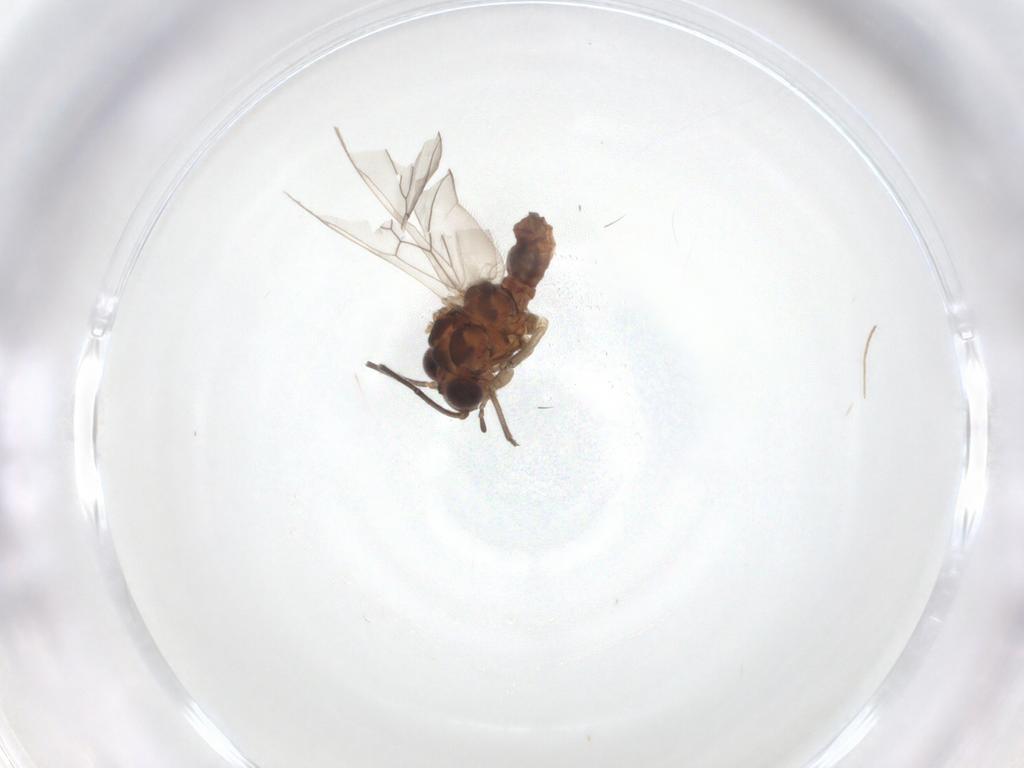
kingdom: Animalia
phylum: Arthropoda
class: Insecta
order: Psocodea
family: Caeciliusidae
